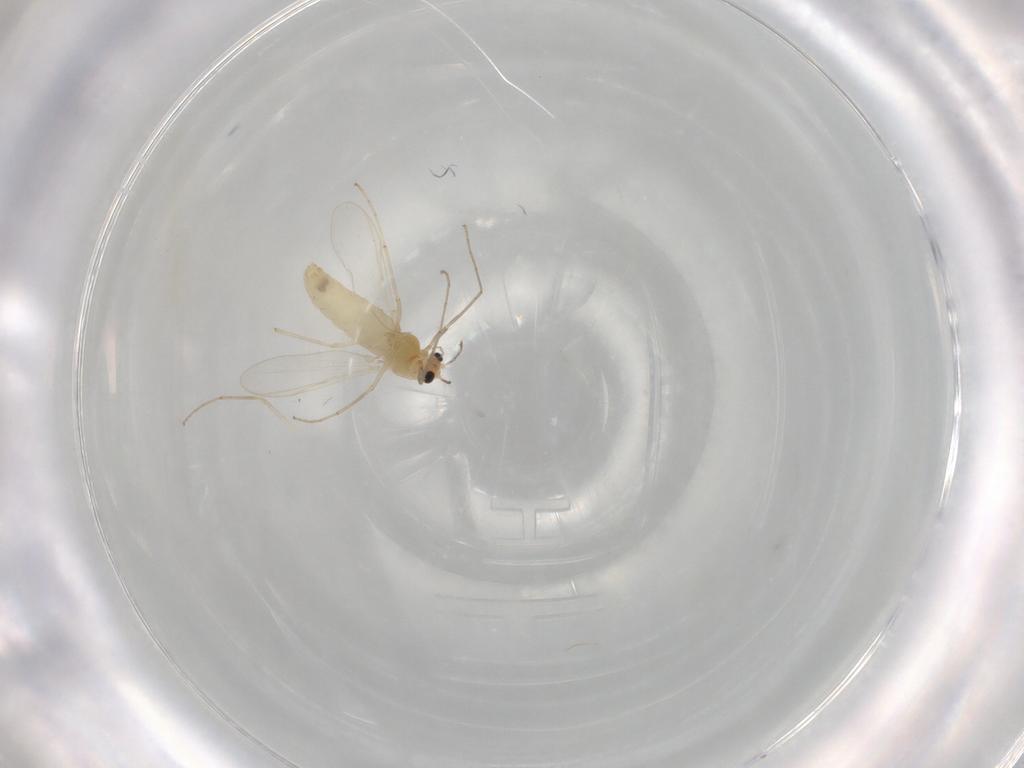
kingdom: Animalia
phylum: Arthropoda
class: Insecta
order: Diptera
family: Chironomidae
